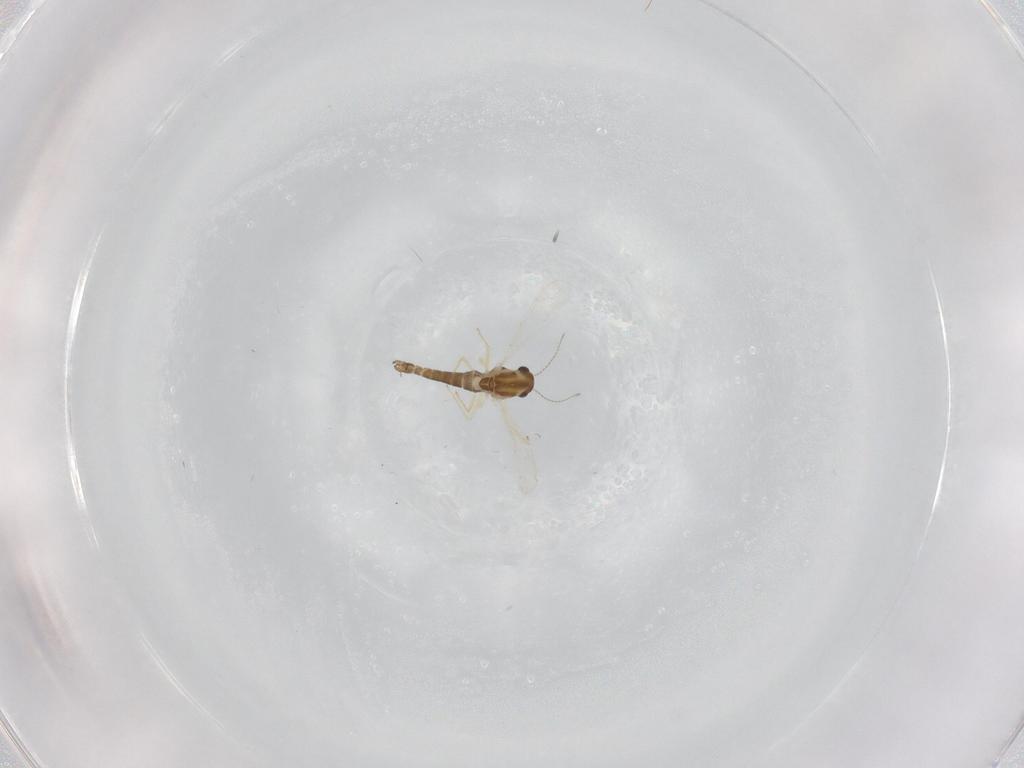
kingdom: Animalia
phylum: Arthropoda
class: Insecta
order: Diptera
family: Chironomidae
